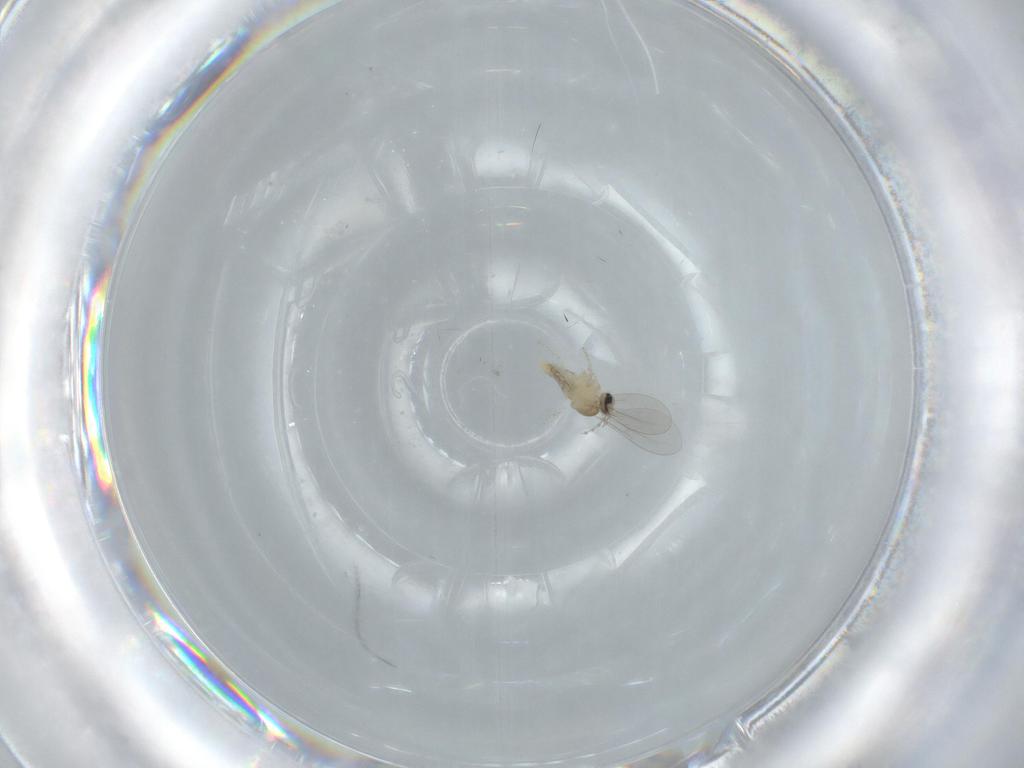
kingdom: Animalia
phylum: Arthropoda
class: Insecta
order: Diptera
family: Cecidomyiidae
